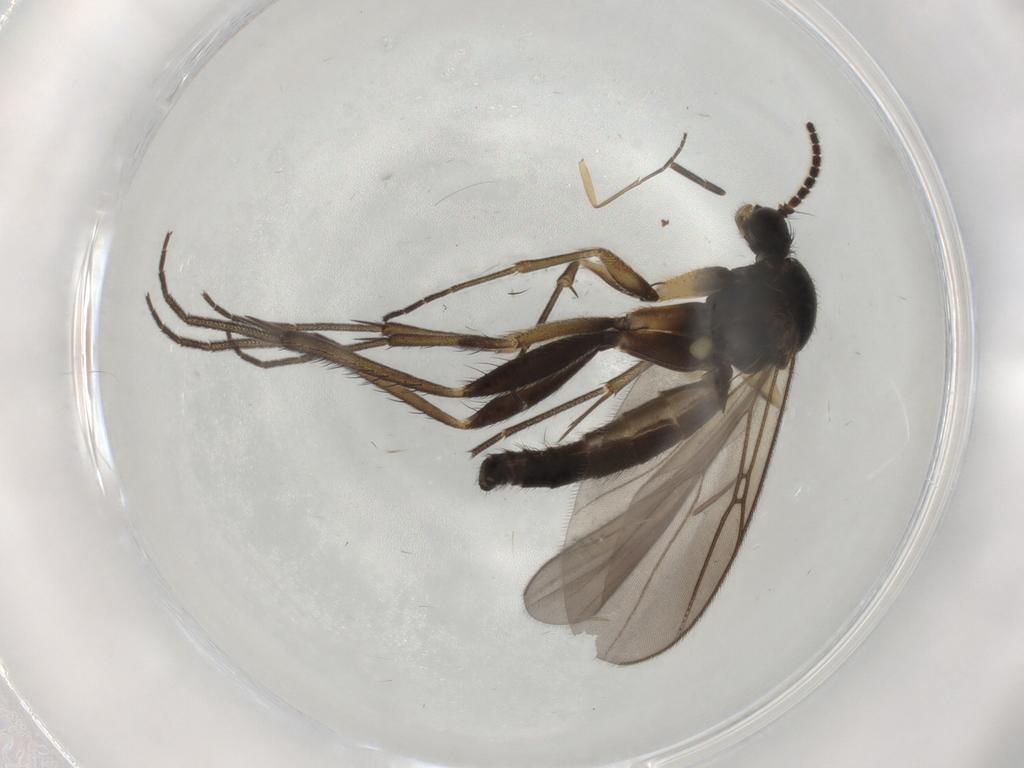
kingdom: Animalia
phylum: Arthropoda
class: Insecta
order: Diptera
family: Mycetophilidae
